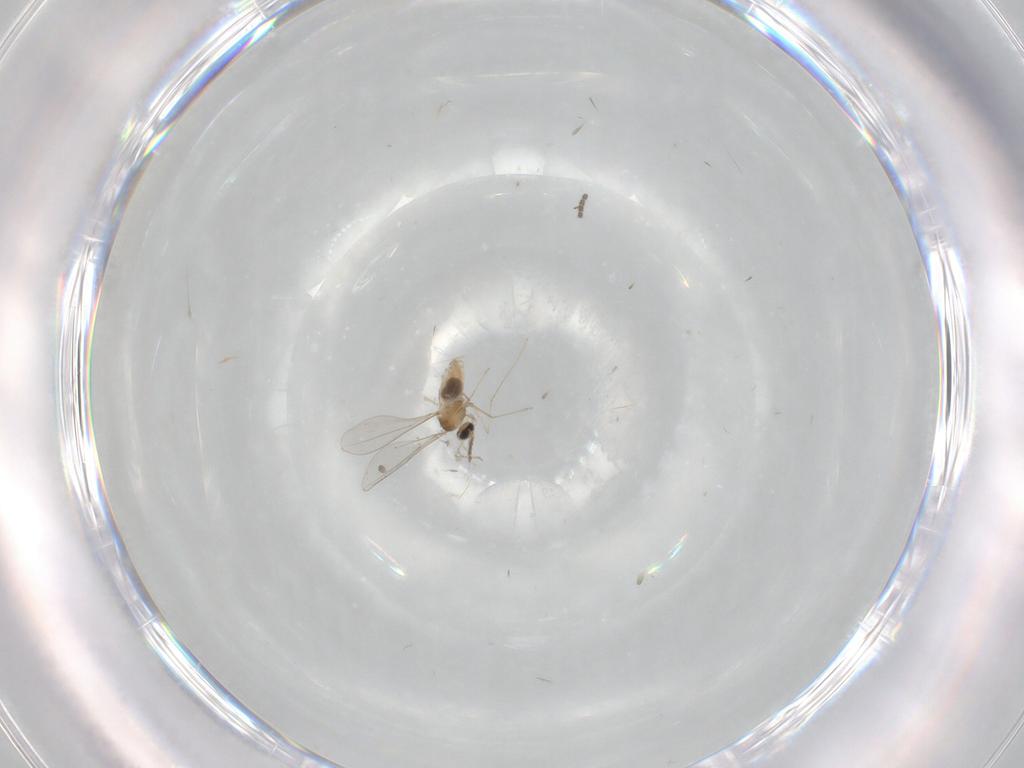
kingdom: Animalia
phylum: Arthropoda
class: Insecta
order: Diptera
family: Cecidomyiidae
